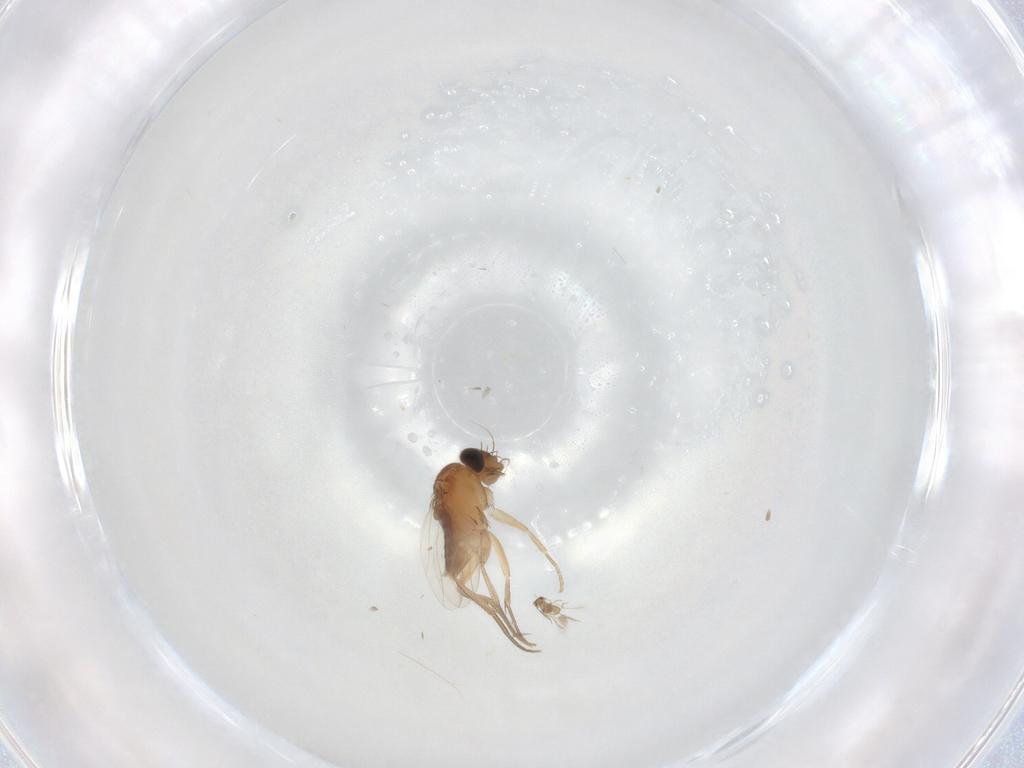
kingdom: Animalia
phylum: Arthropoda
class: Insecta
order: Diptera
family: Phoridae
